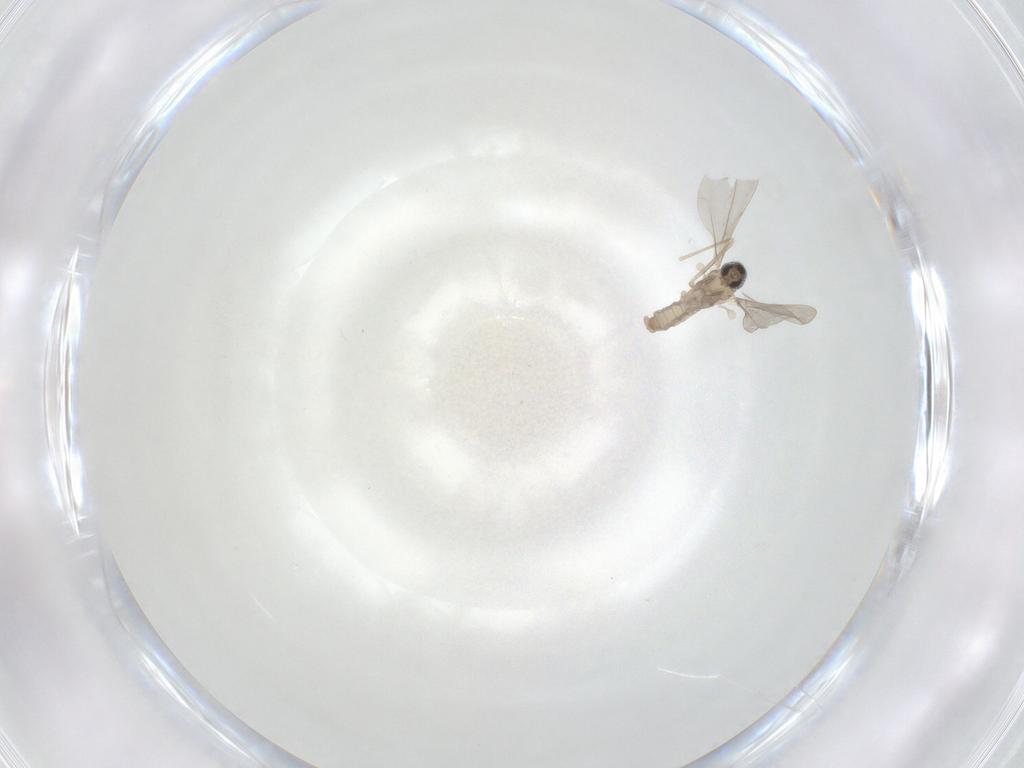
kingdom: Animalia
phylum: Arthropoda
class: Insecta
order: Diptera
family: Cecidomyiidae
